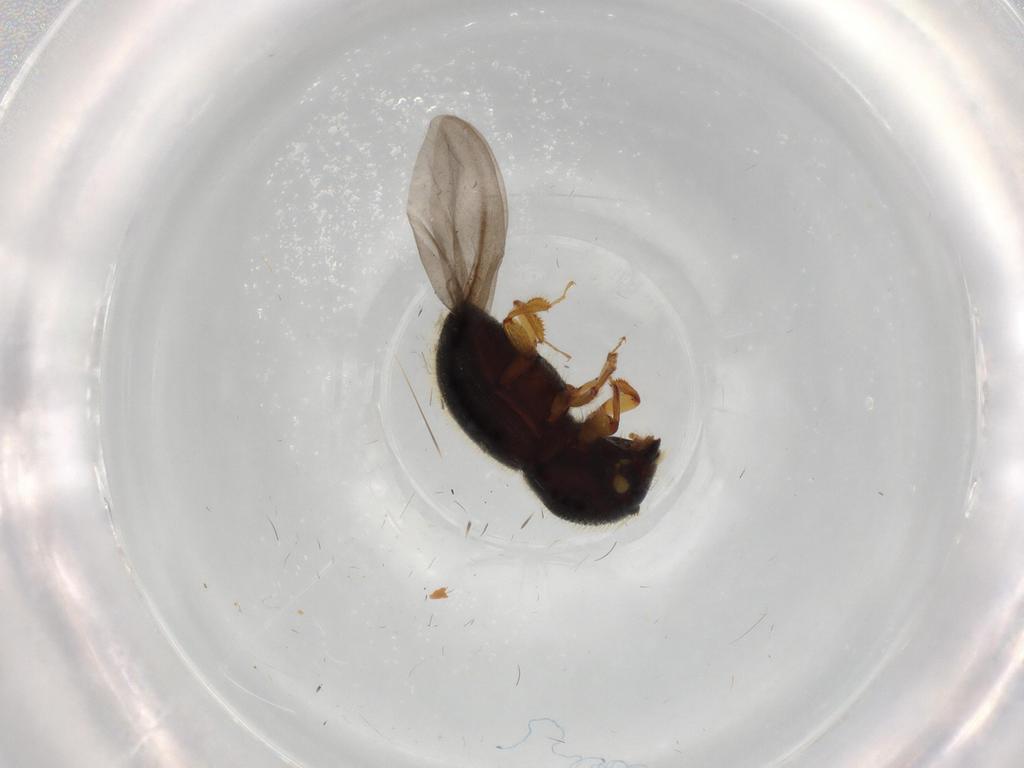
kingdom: Animalia
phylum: Arthropoda
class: Insecta
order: Coleoptera
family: Curculionidae
